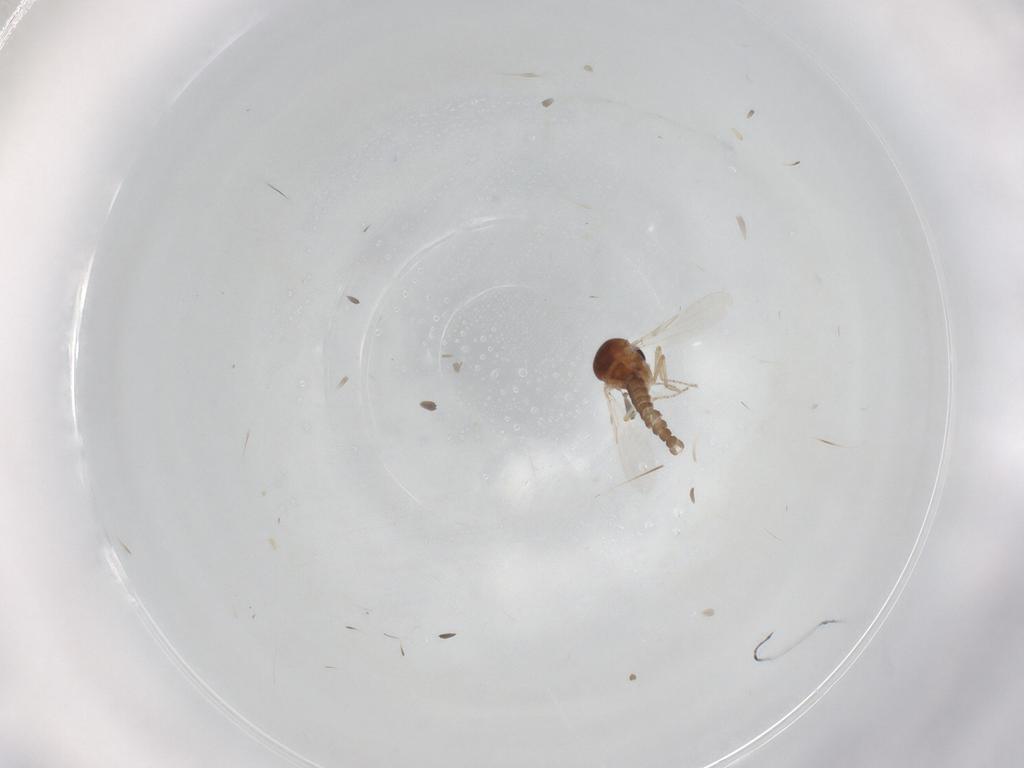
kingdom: Animalia
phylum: Arthropoda
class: Insecta
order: Diptera
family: Ceratopogonidae
